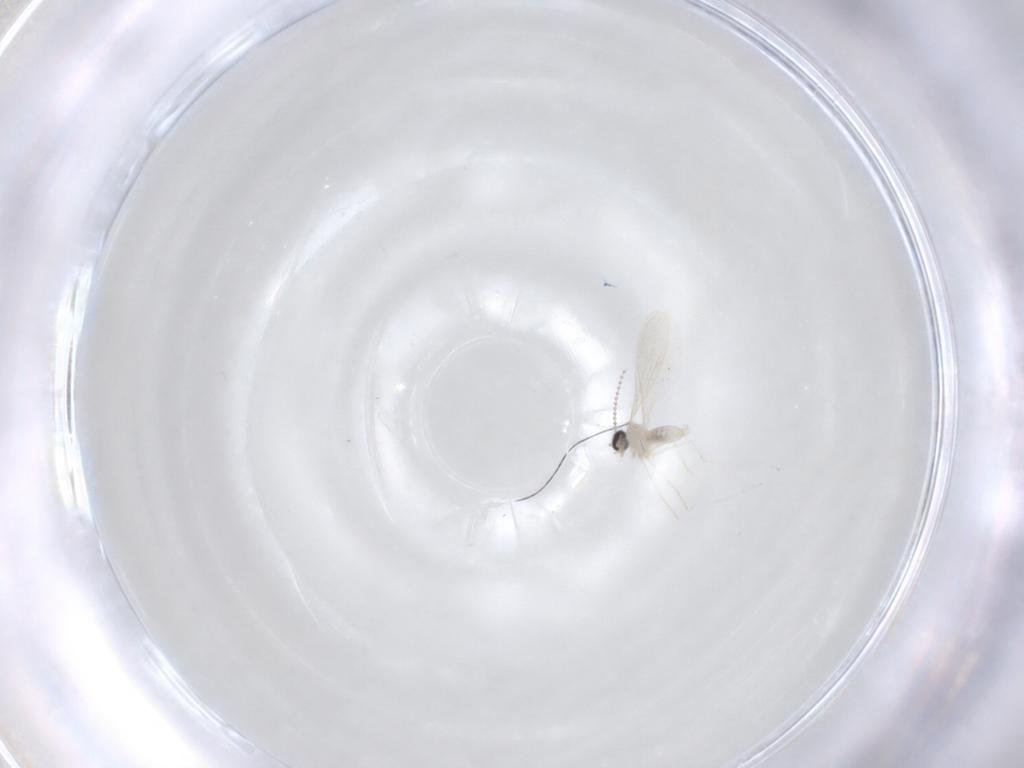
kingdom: Animalia
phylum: Arthropoda
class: Insecta
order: Diptera
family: Cecidomyiidae
